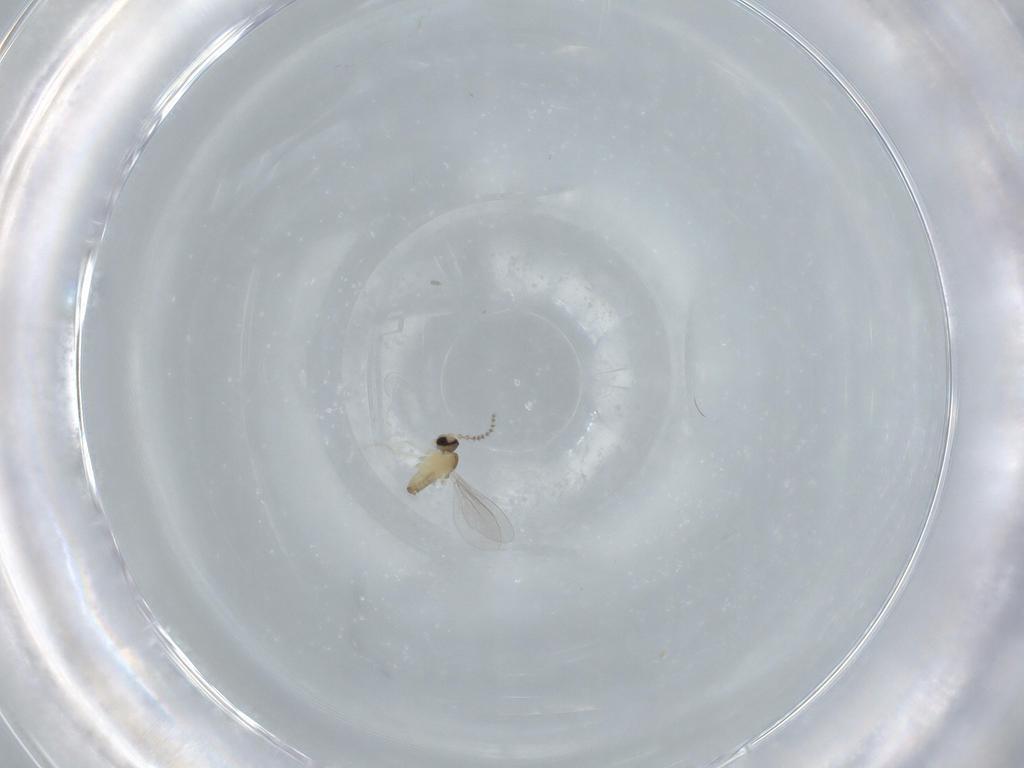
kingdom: Animalia
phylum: Arthropoda
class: Insecta
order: Diptera
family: Cecidomyiidae
